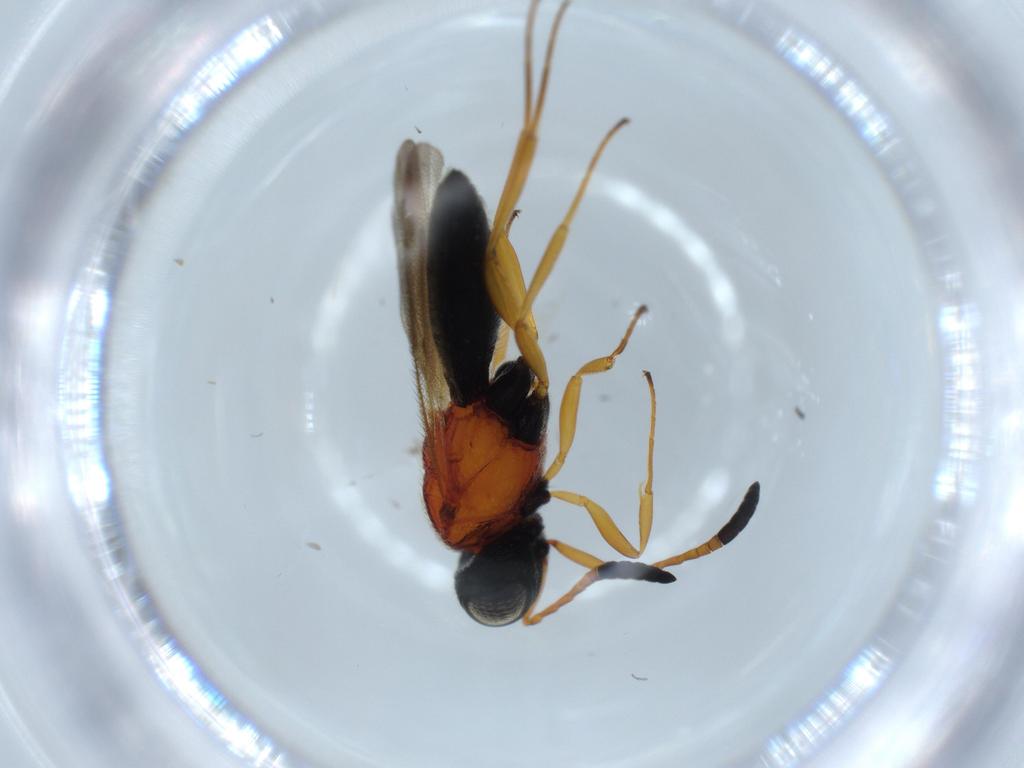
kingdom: Animalia
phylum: Arthropoda
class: Insecta
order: Hymenoptera
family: Scelionidae
